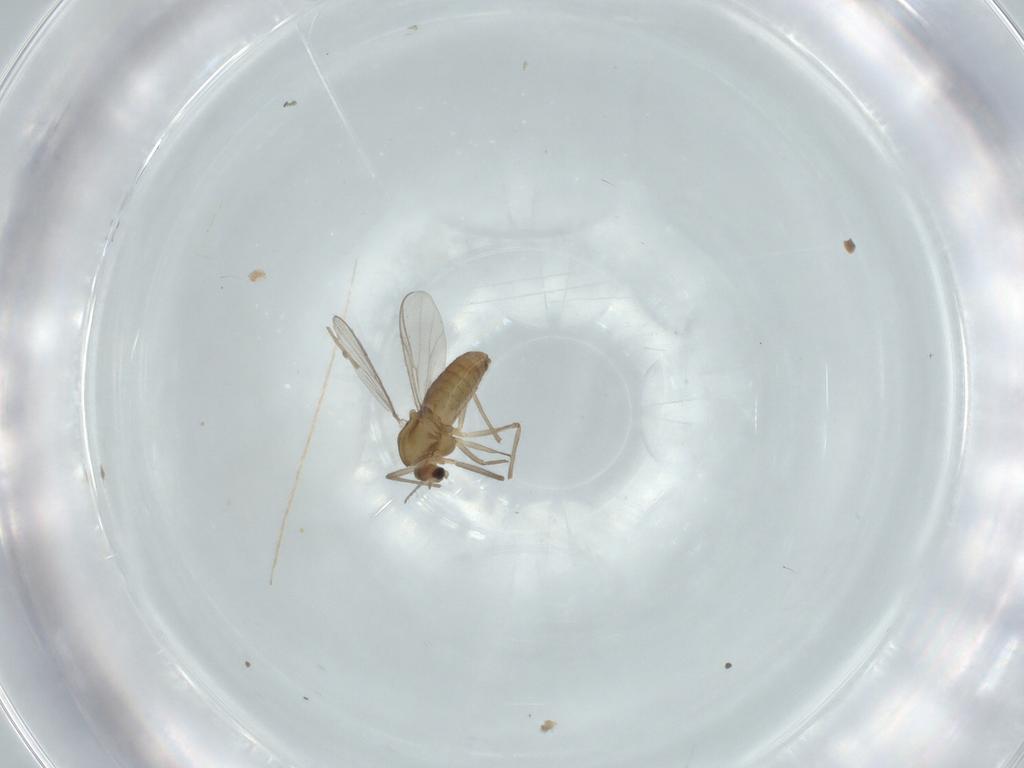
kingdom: Animalia
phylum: Arthropoda
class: Insecta
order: Diptera
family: Chironomidae
